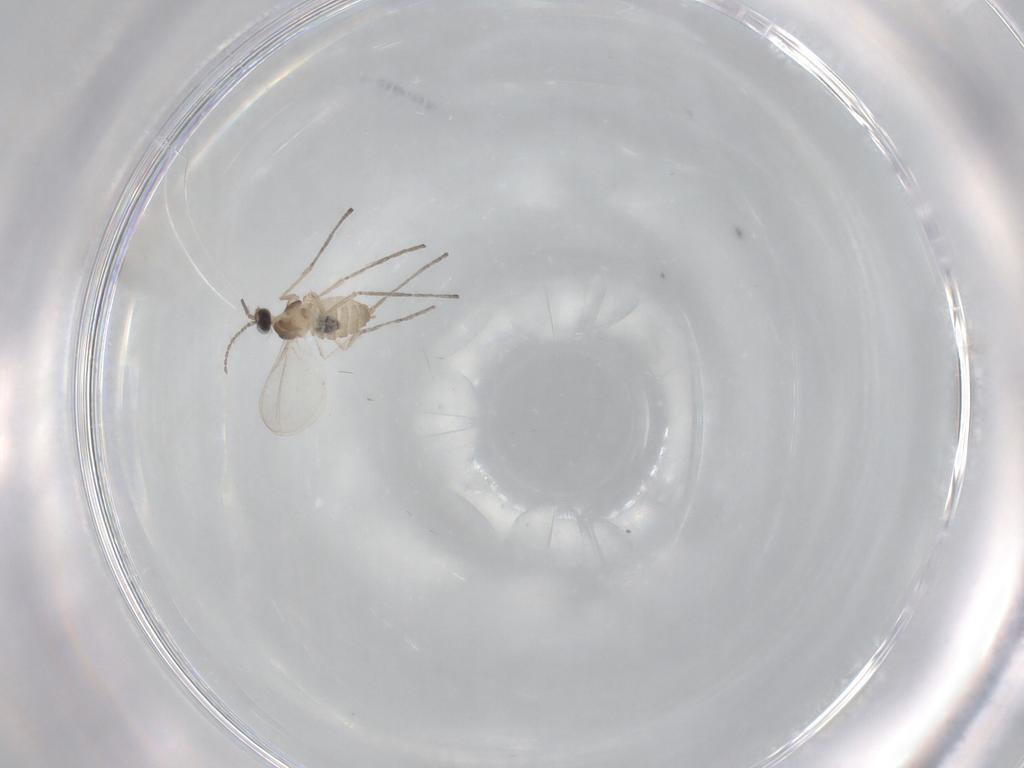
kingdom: Animalia
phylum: Arthropoda
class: Insecta
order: Diptera
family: Cecidomyiidae
